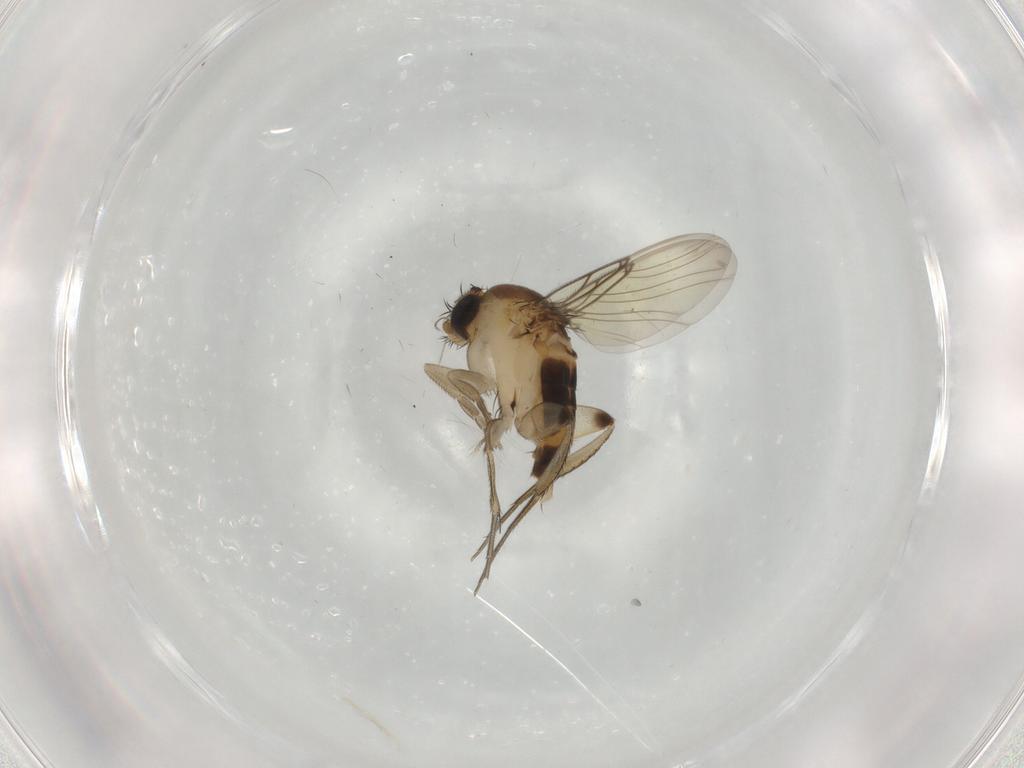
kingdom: Animalia
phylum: Arthropoda
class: Insecta
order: Diptera
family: Chironomidae
